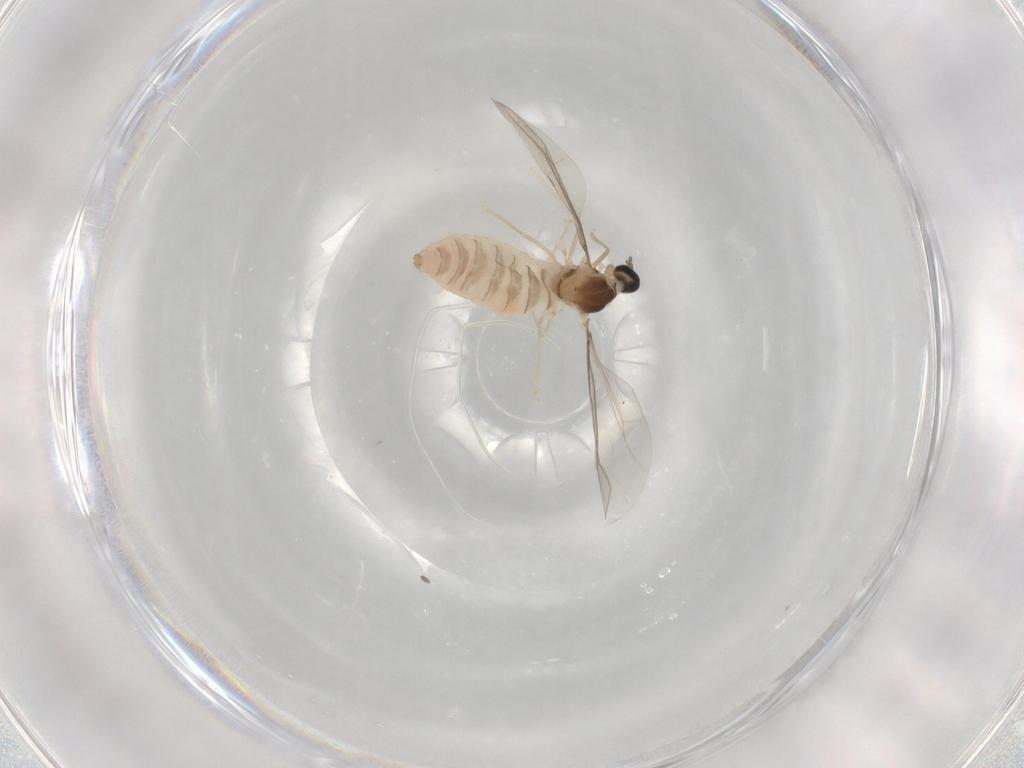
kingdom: Animalia
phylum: Arthropoda
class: Insecta
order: Diptera
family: Cecidomyiidae
